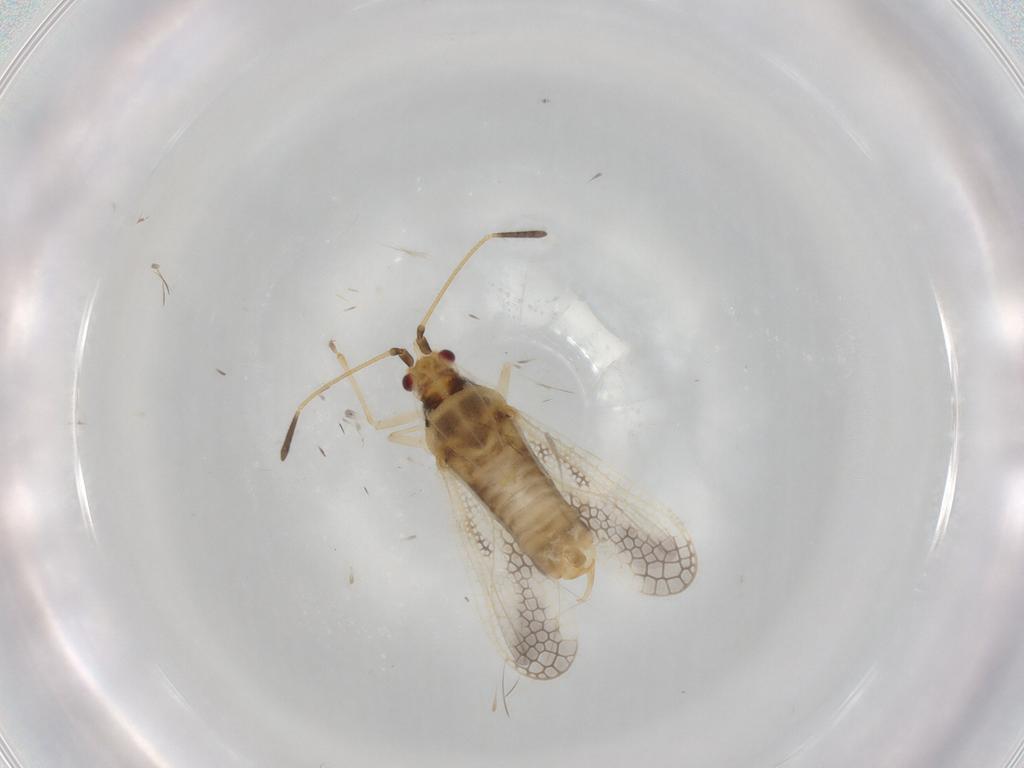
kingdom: Animalia
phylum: Arthropoda
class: Insecta
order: Hemiptera
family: Tingidae
